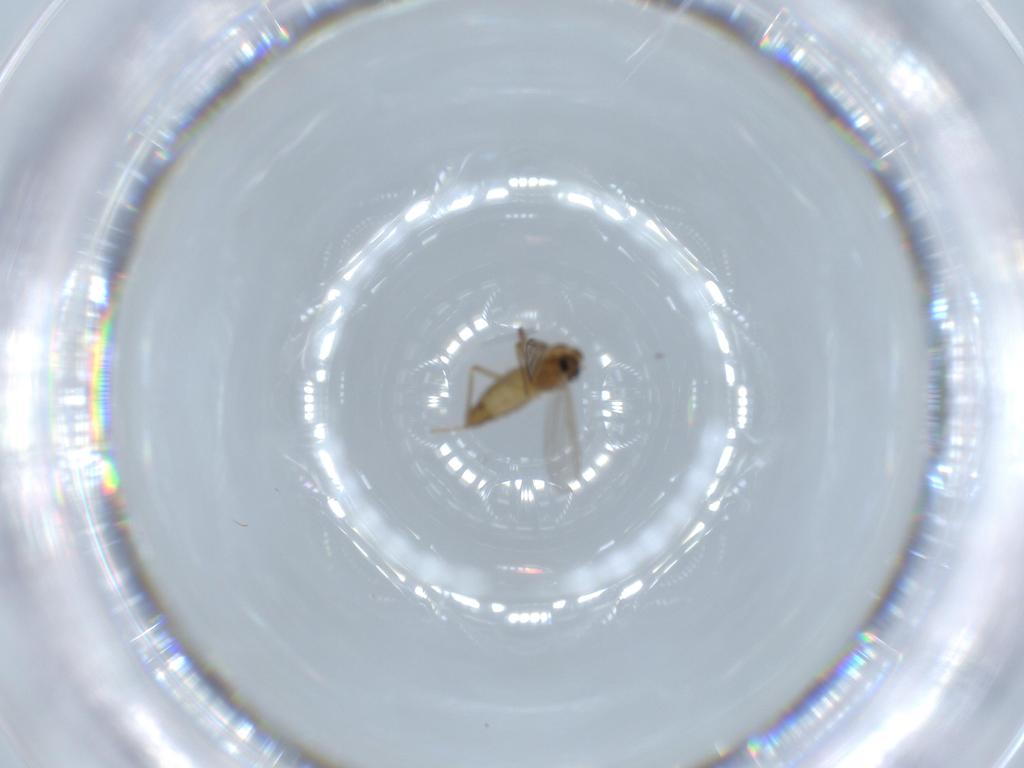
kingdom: Animalia
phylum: Arthropoda
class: Insecta
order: Diptera
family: Chironomidae
